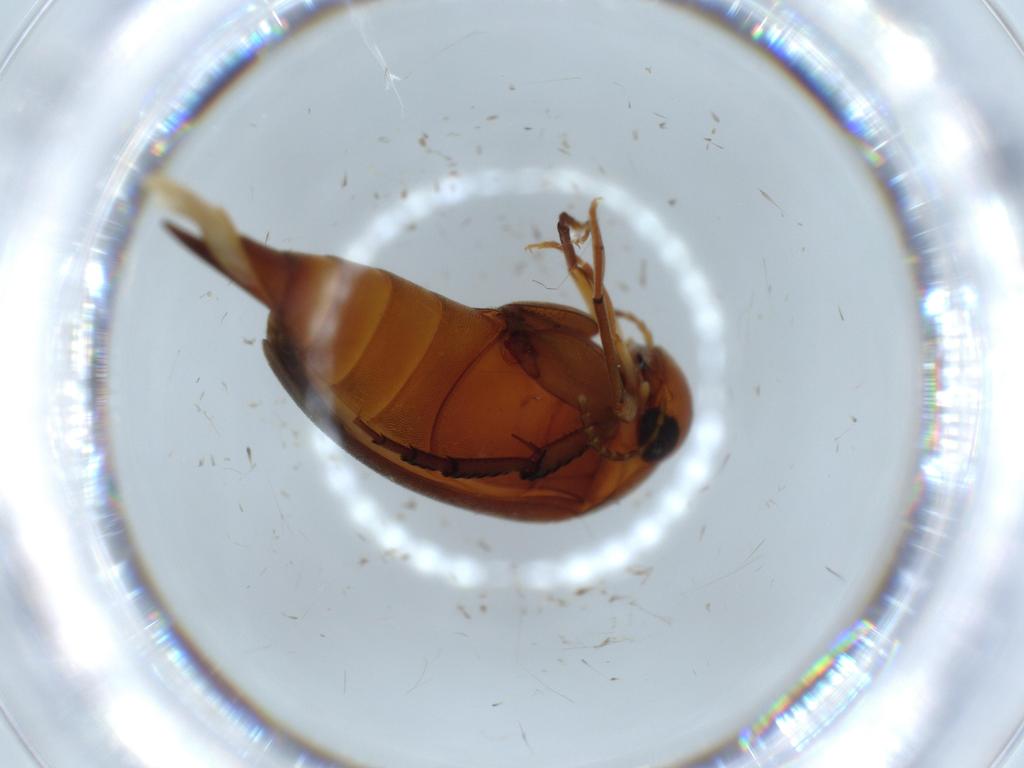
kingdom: Animalia
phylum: Arthropoda
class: Insecta
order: Coleoptera
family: Mordellidae
